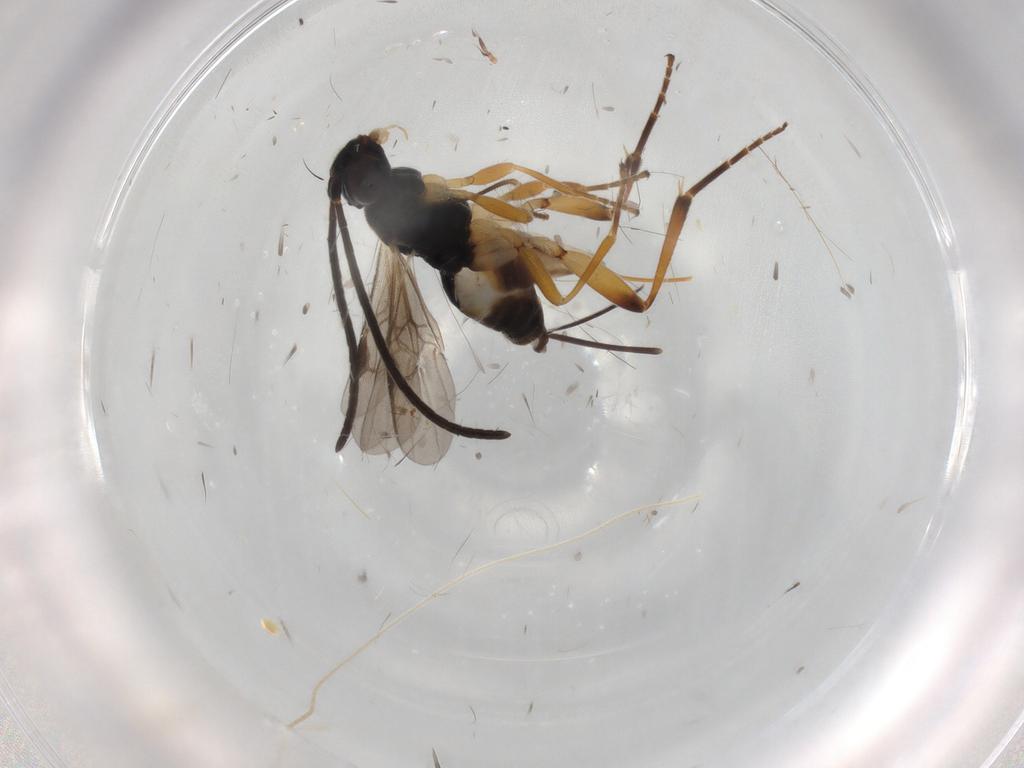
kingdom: Animalia
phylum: Arthropoda
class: Insecta
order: Hymenoptera
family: Braconidae
